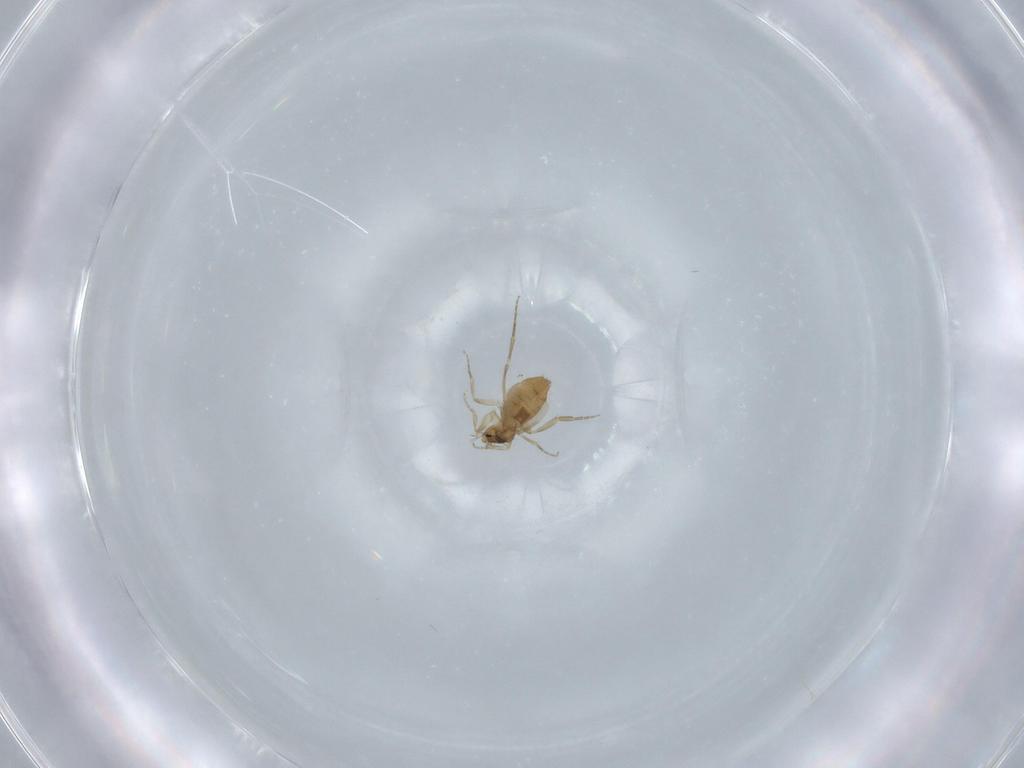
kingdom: Animalia
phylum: Arthropoda
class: Insecta
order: Diptera
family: Phoridae
